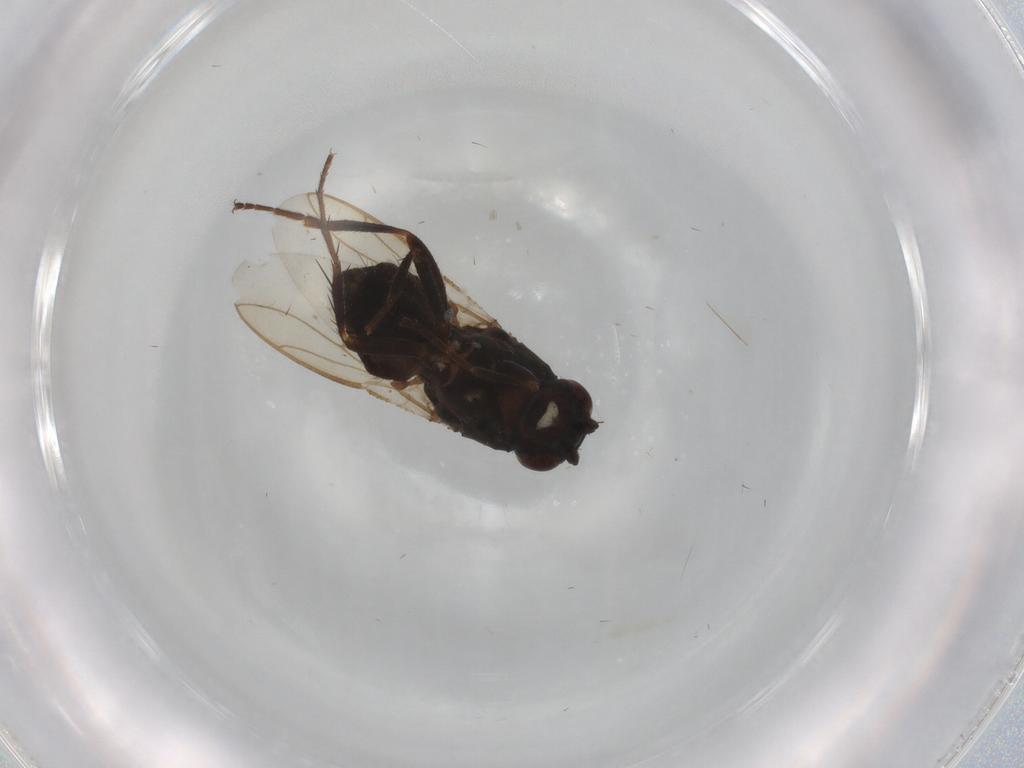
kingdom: Animalia
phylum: Arthropoda
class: Insecta
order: Diptera
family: Sphaeroceridae
